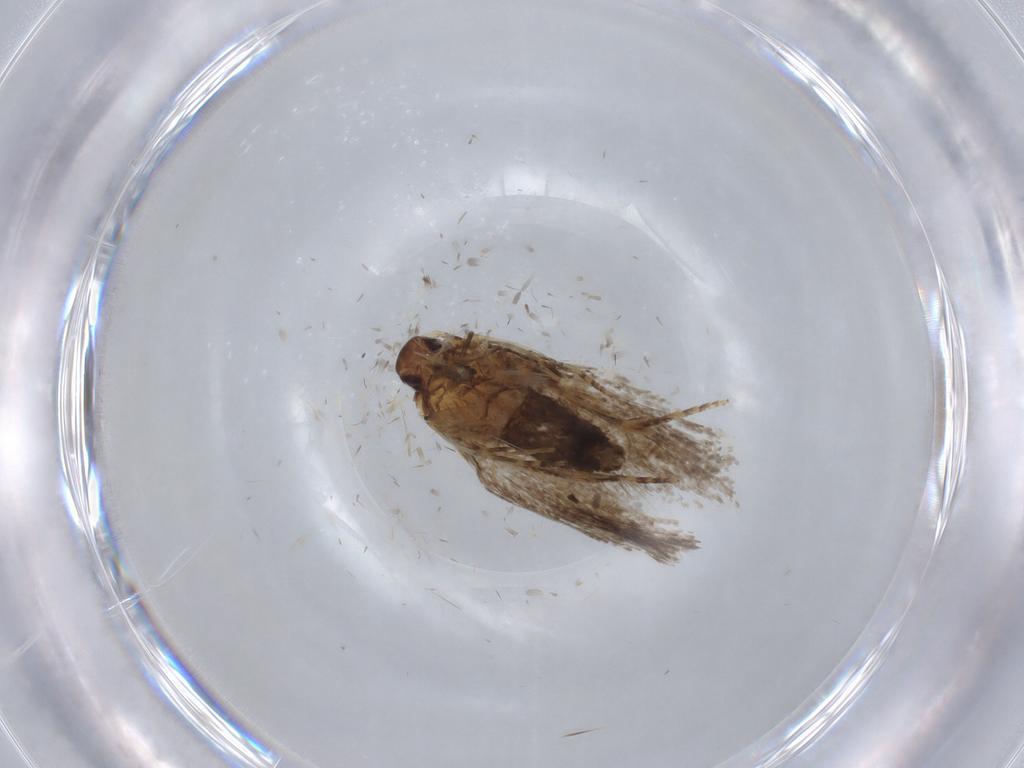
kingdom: Animalia
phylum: Arthropoda
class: Insecta
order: Lepidoptera
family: Oecophoridae
